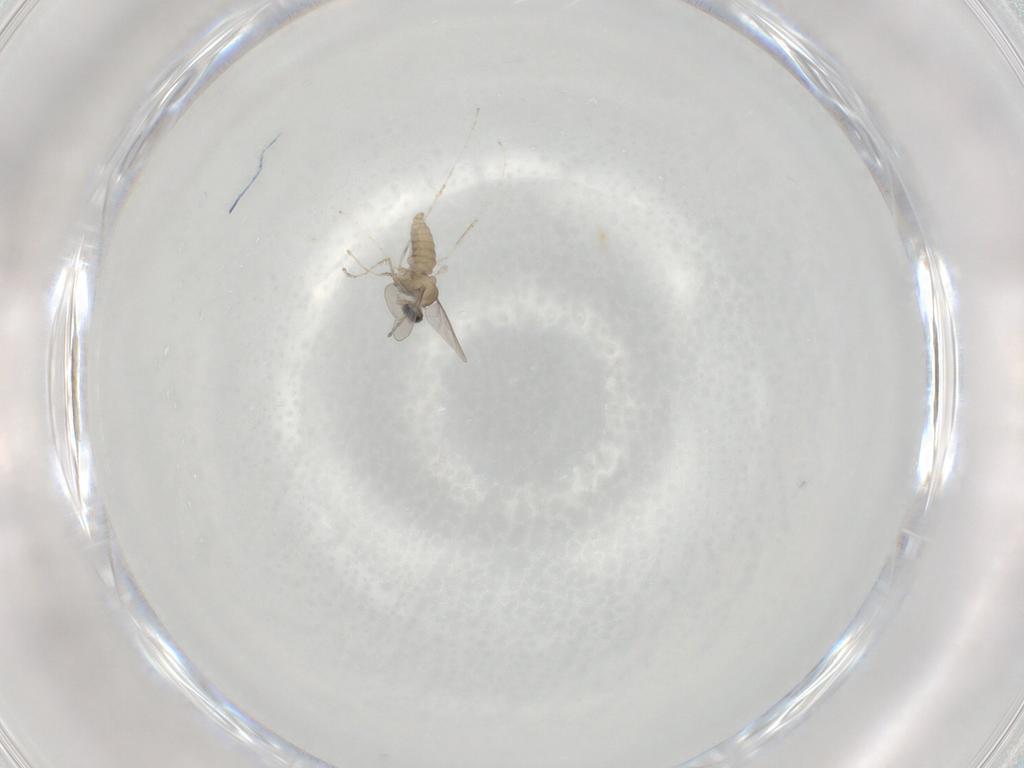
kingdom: Animalia
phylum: Arthropoda
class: Insecta
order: Diptera
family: Cecidomyiidae
